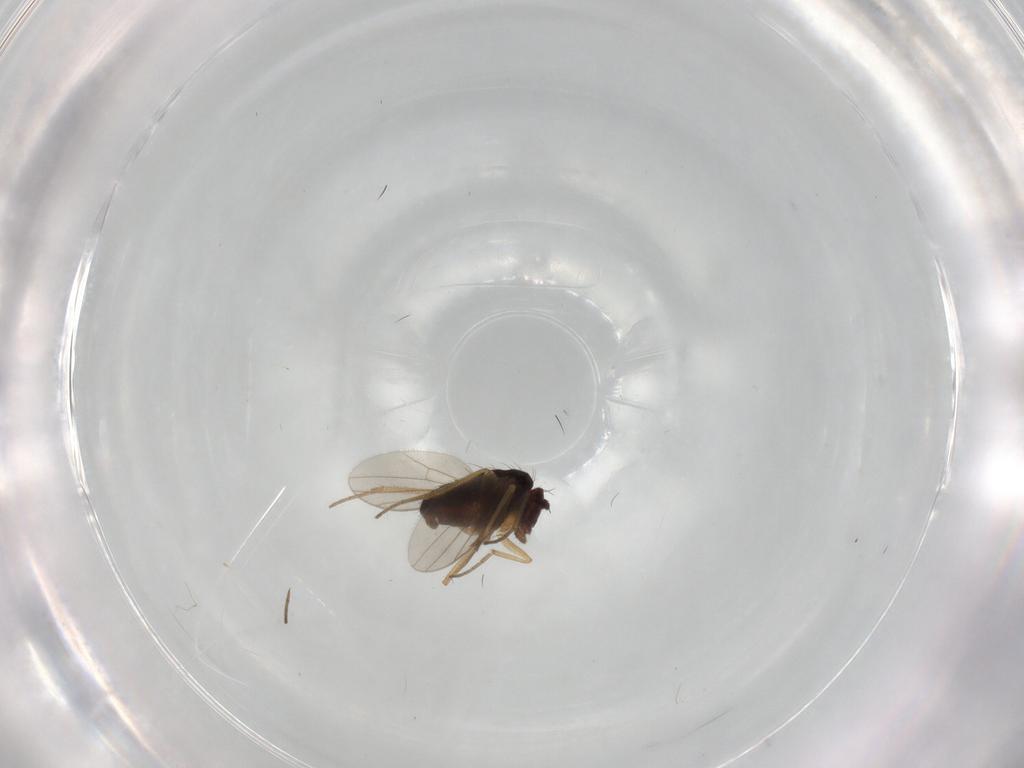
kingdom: Animalia
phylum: Arthropoda
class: Insecta
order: Diptera
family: Dolichopodidae
